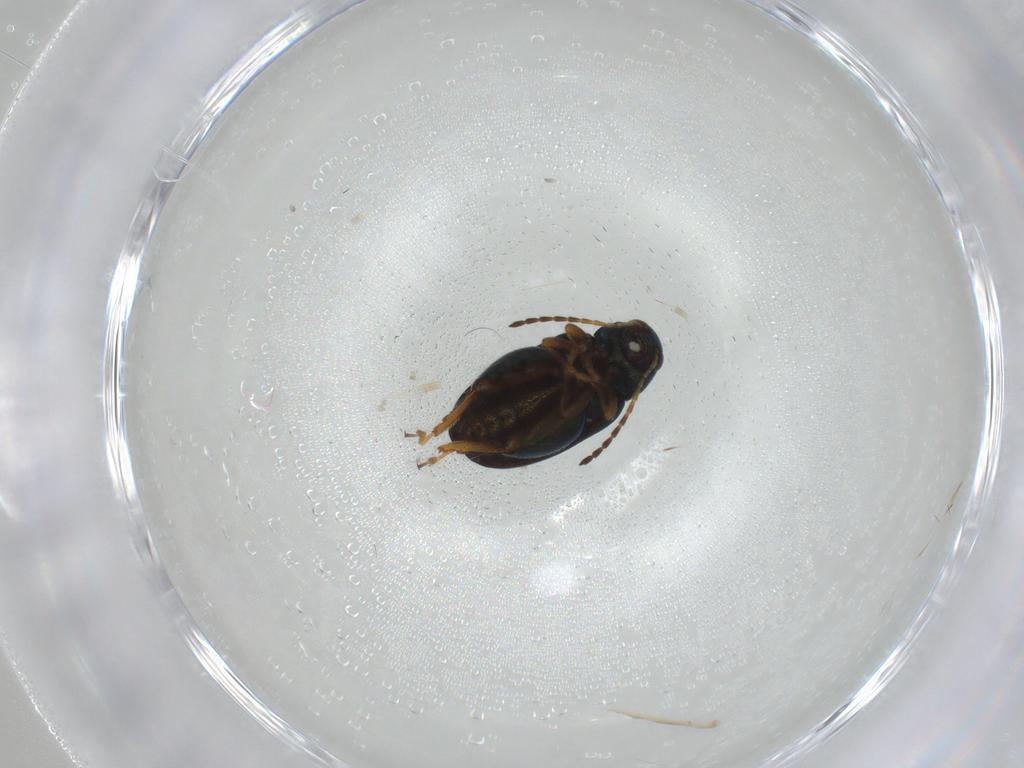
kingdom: Animalia
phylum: Arthropoda
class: Insecta
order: Coleoptera
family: Chrysomelidae
